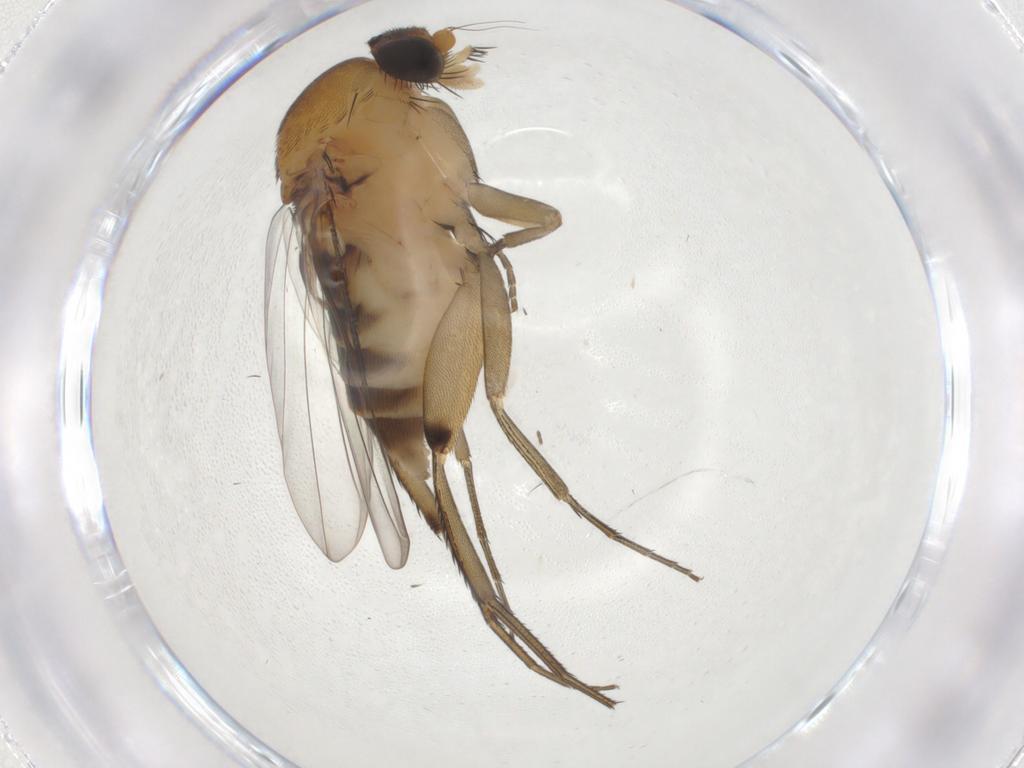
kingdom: Animalia
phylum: Arthropoda
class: Insecta
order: Diptera
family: Phoridae
